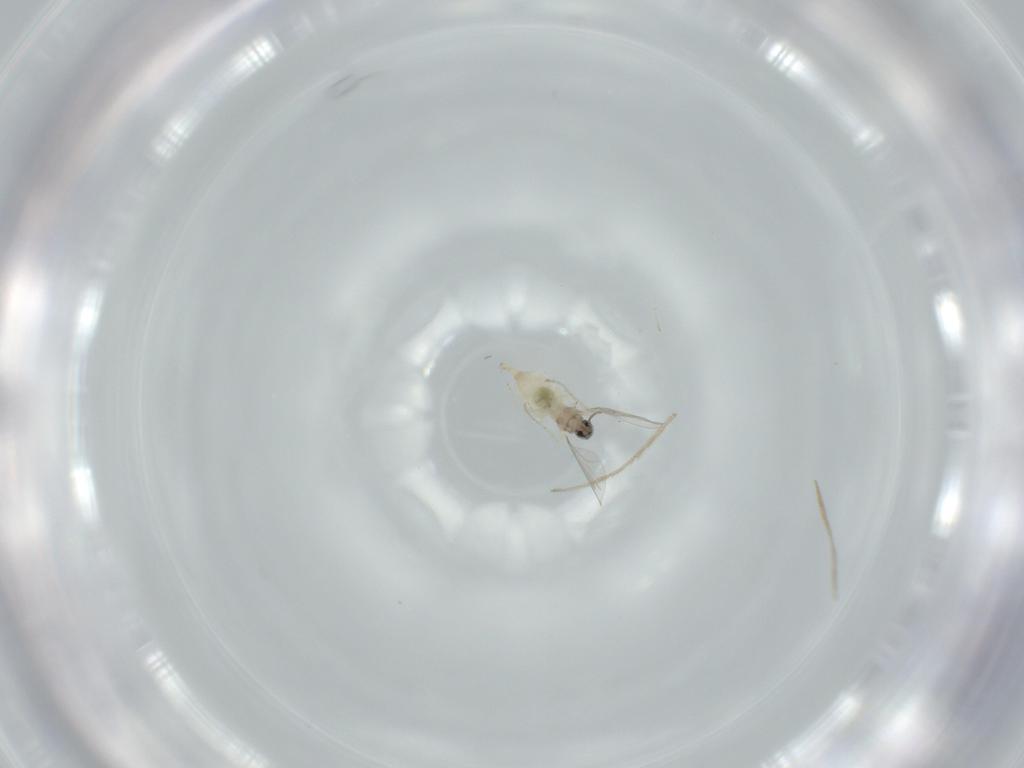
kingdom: Animalia
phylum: Arthropoda
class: Insecta
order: Diptera
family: Cecidomyiidae
